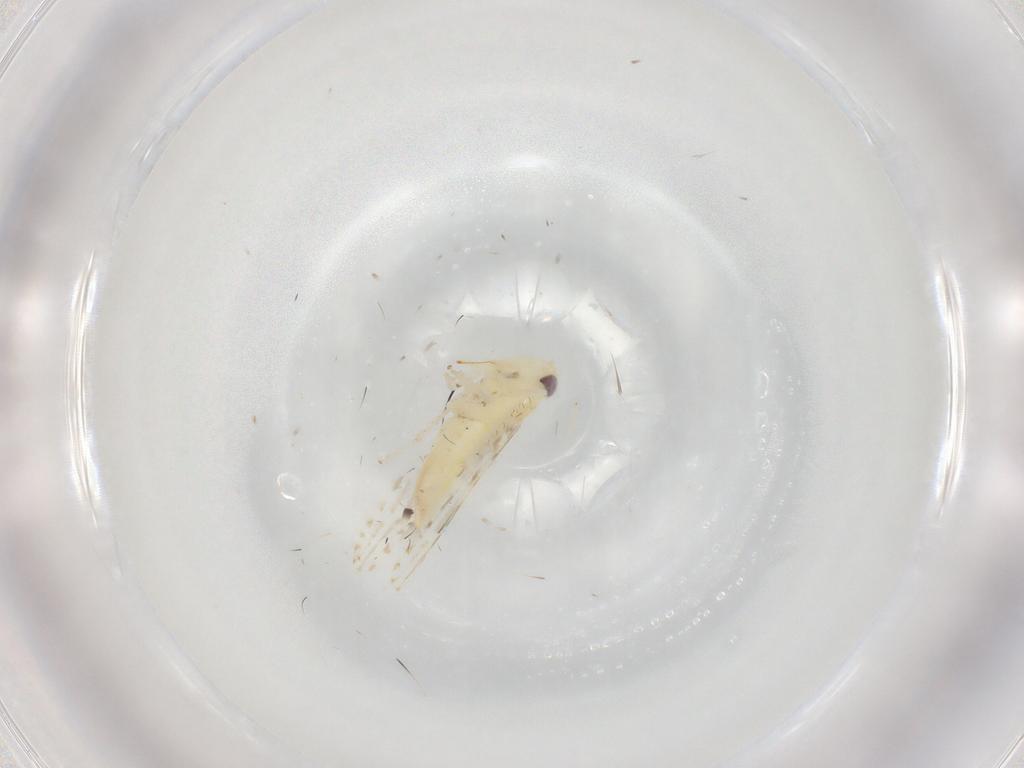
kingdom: Animalia
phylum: Arthropoda
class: Insecta
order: Hemiptera
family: Cicadellidae
